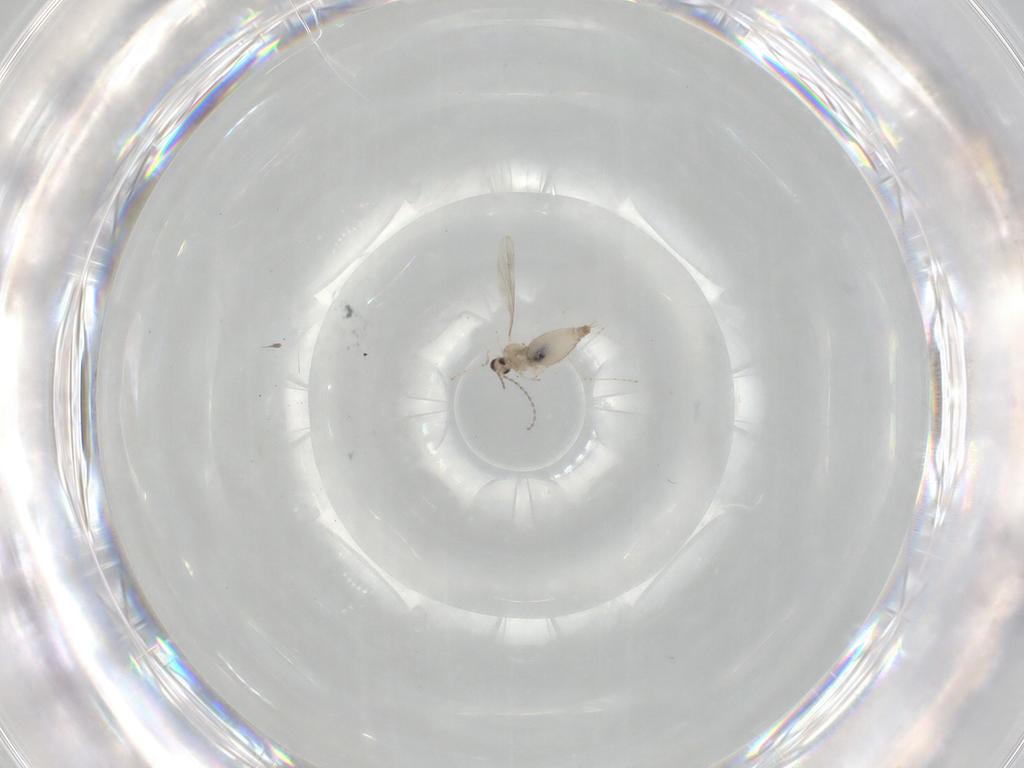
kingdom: Animalia
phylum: Arthropoda
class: Insecta
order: Diptera
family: Cecidomyiidae
